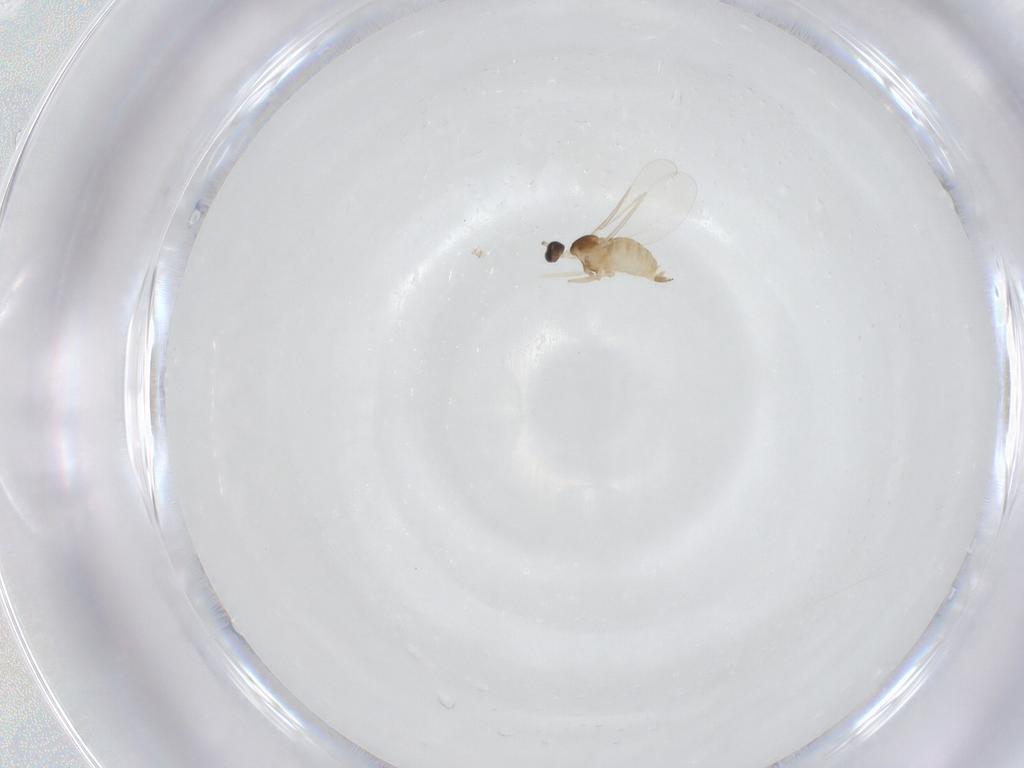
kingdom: Animalia
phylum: Arthropoda
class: Insecta
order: Diptera
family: Cecidomyiidae
